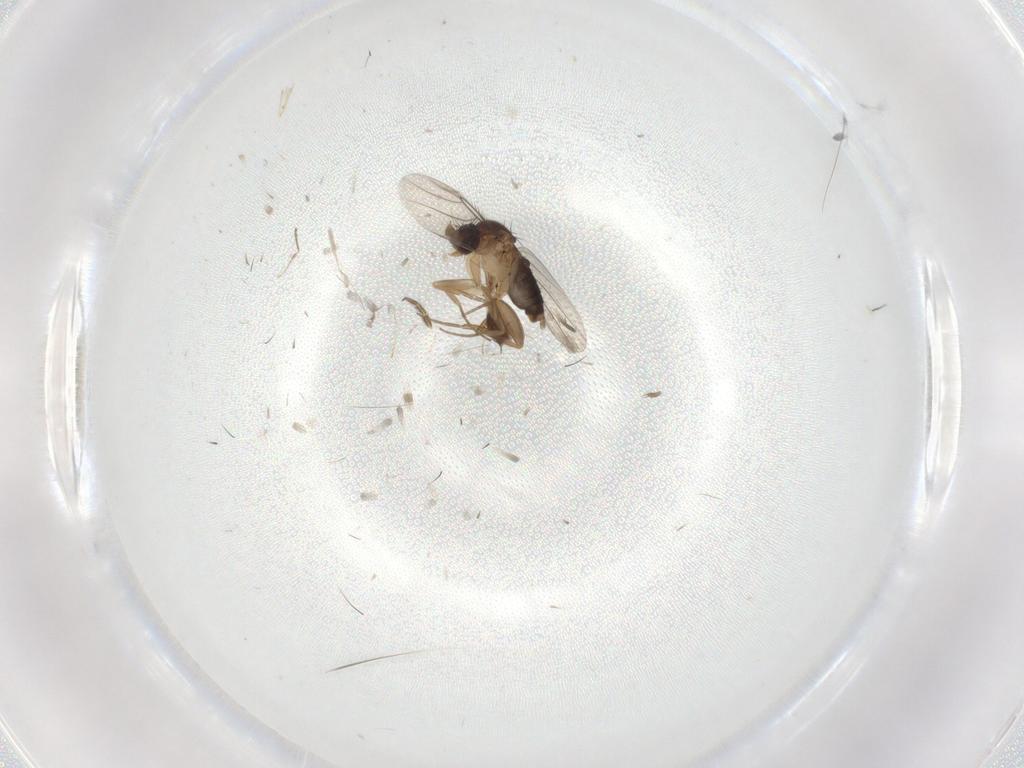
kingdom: Animalia
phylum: Arthropoda
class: Insecta
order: Diptera
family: Phoridae
